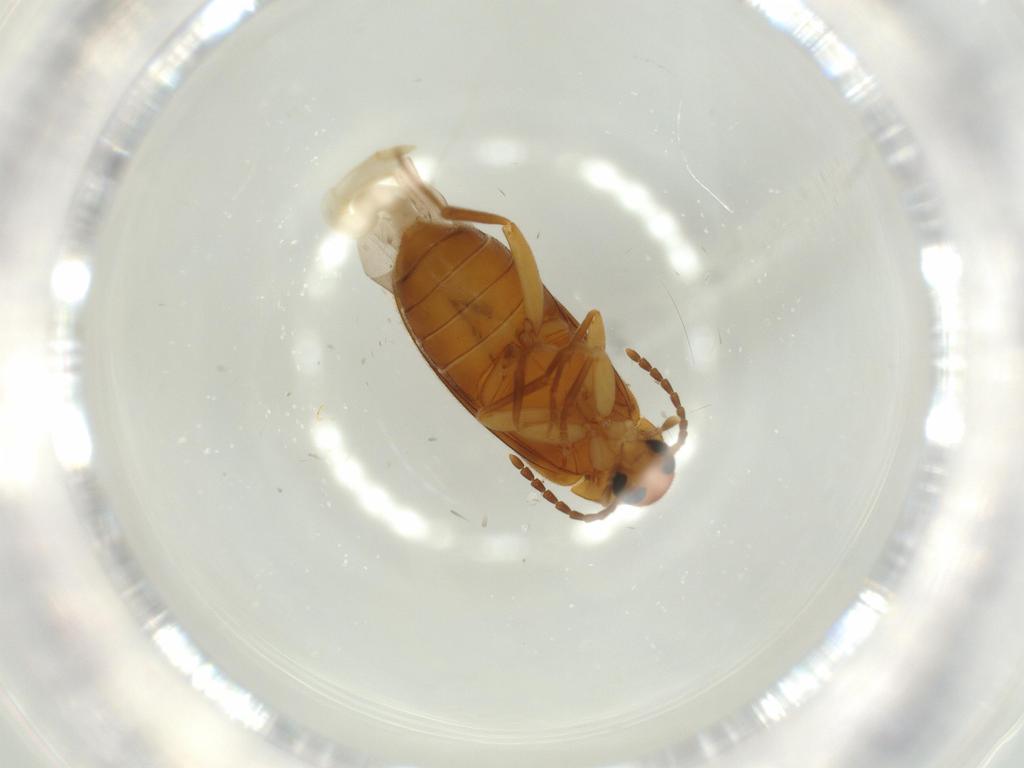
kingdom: Animalia
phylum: Arthropoda
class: Insecta
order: Coleoptera
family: Scraptiidae
